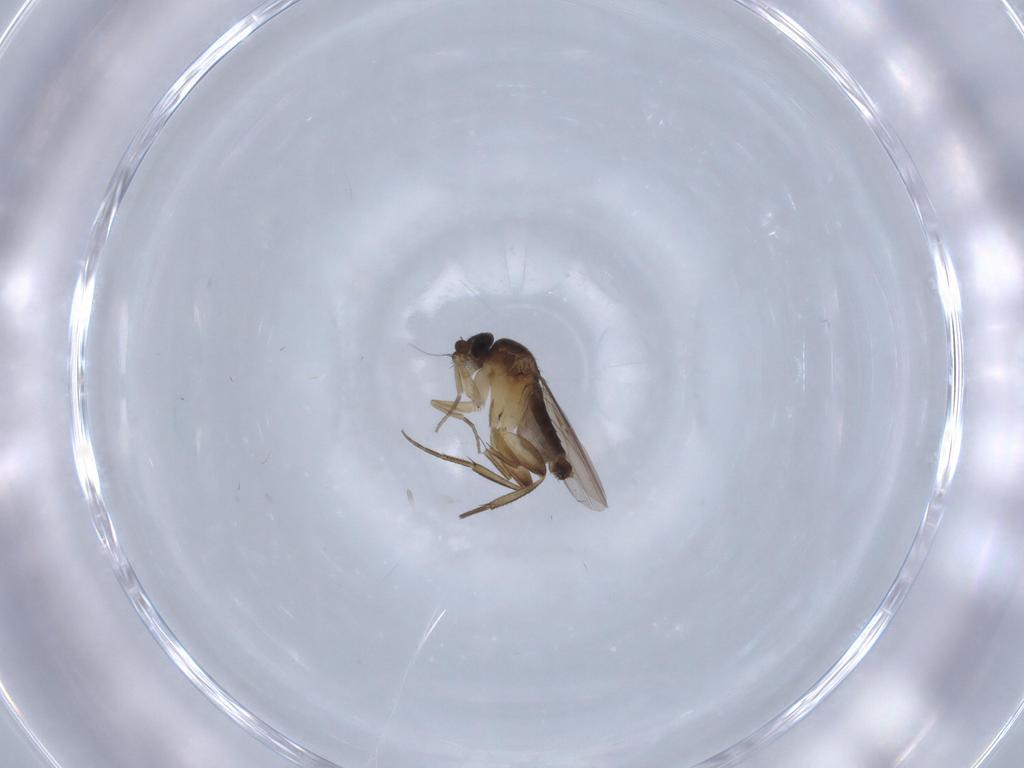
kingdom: Animalia
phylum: Arthropoda
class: Insecta
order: Diptera
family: Phoridae
